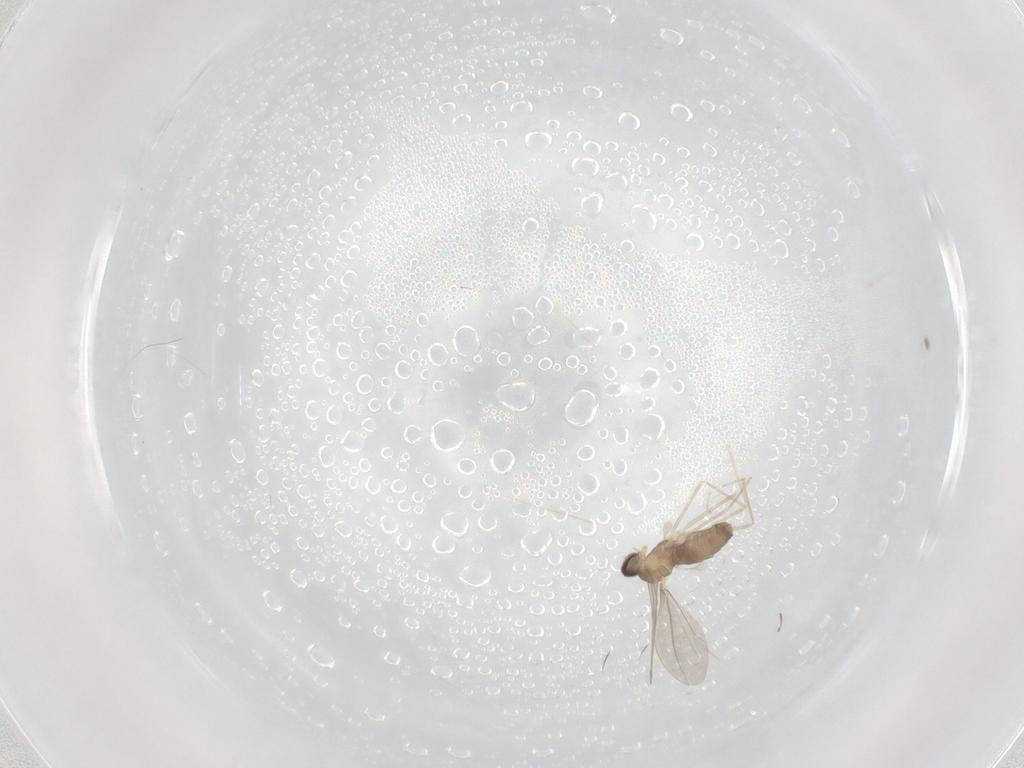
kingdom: Animalia
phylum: Arthropoda
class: Insecta
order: Diptera
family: Cecidomyiidae
